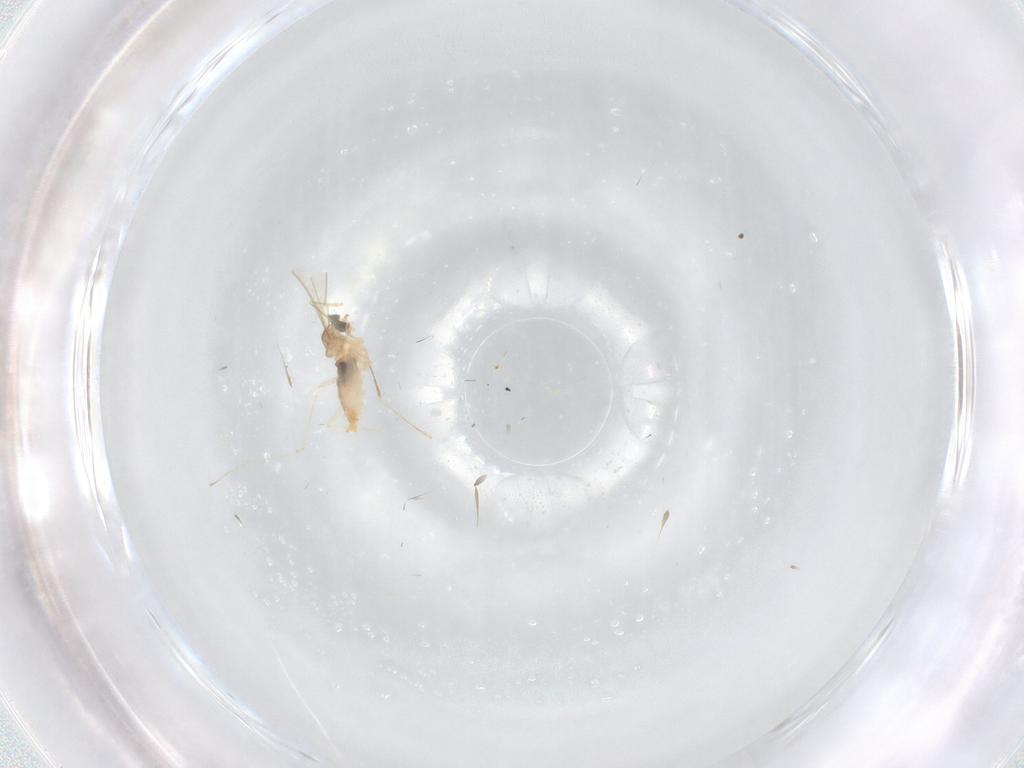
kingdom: Animalia
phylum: Arthropoda
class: Insecta
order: Diptera
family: Cecidomyiidae
